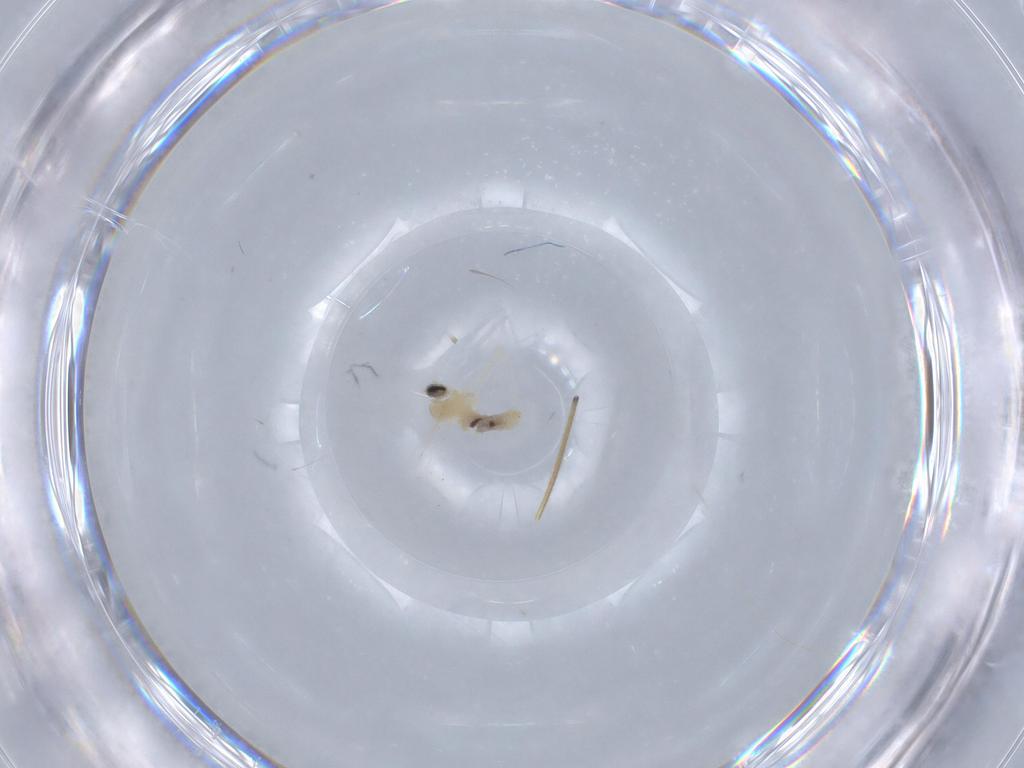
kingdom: Animalia
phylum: Arthropoda
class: Insecta
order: Diptera
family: Cecidomyiidae
